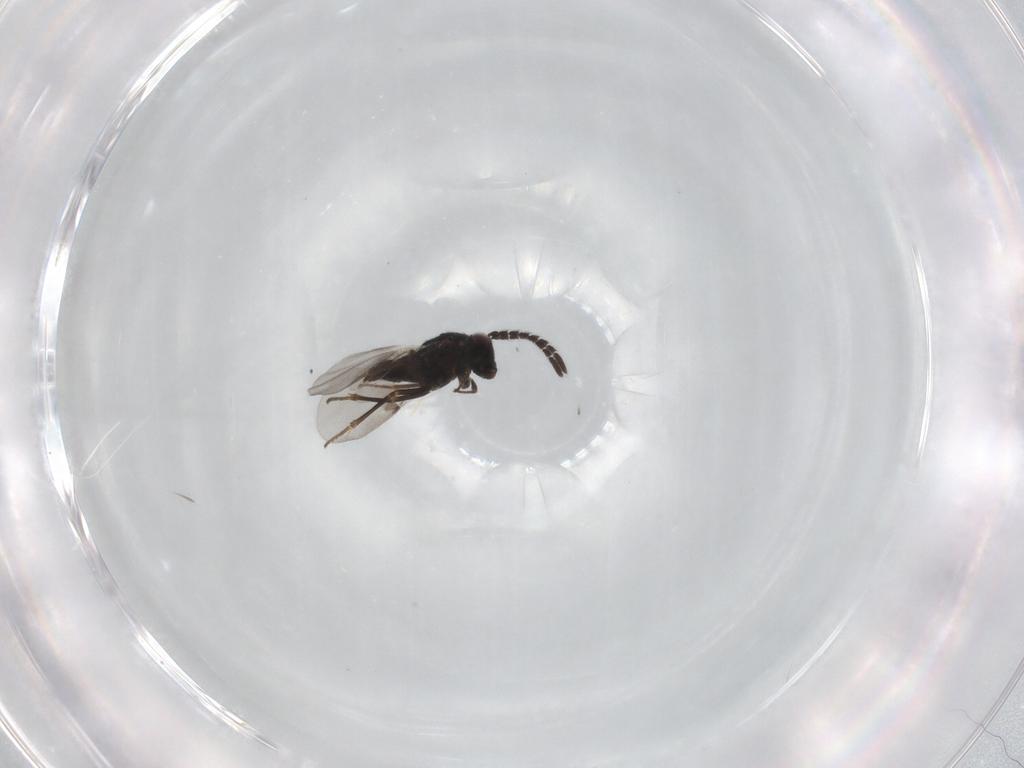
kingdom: Animalia
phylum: Arthropoda
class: Insecta
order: Hymenoptera
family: Encyrtidae
